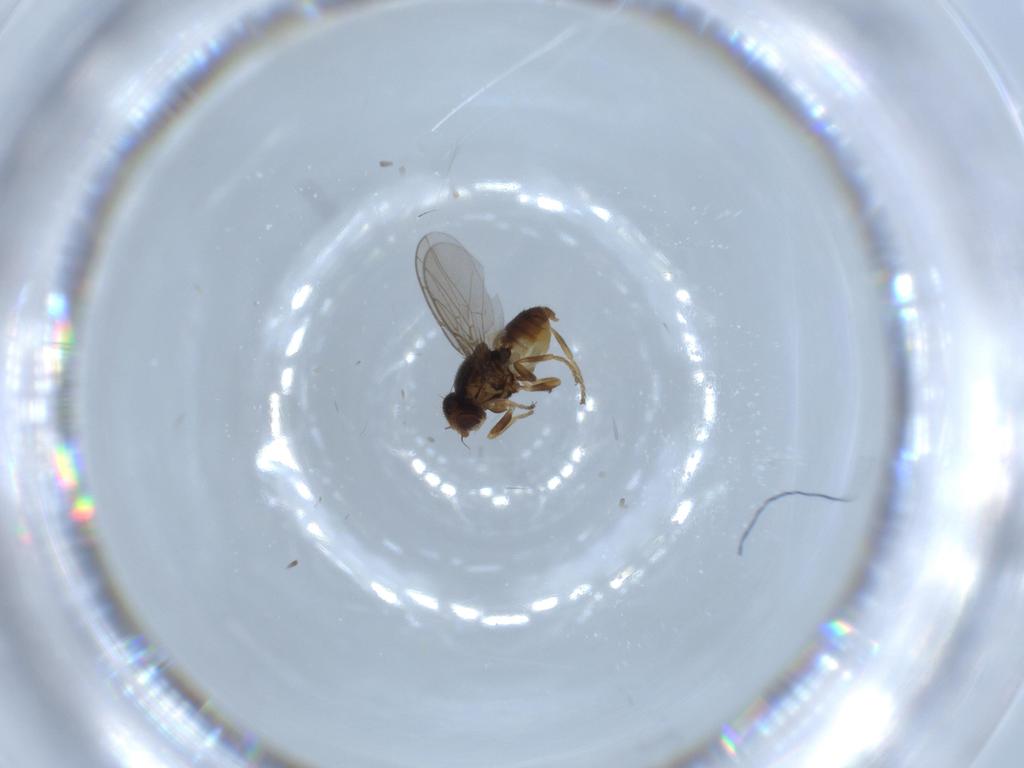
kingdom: Animalia
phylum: Arthropoda
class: Insecta
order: Diptera
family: Chloropidae
